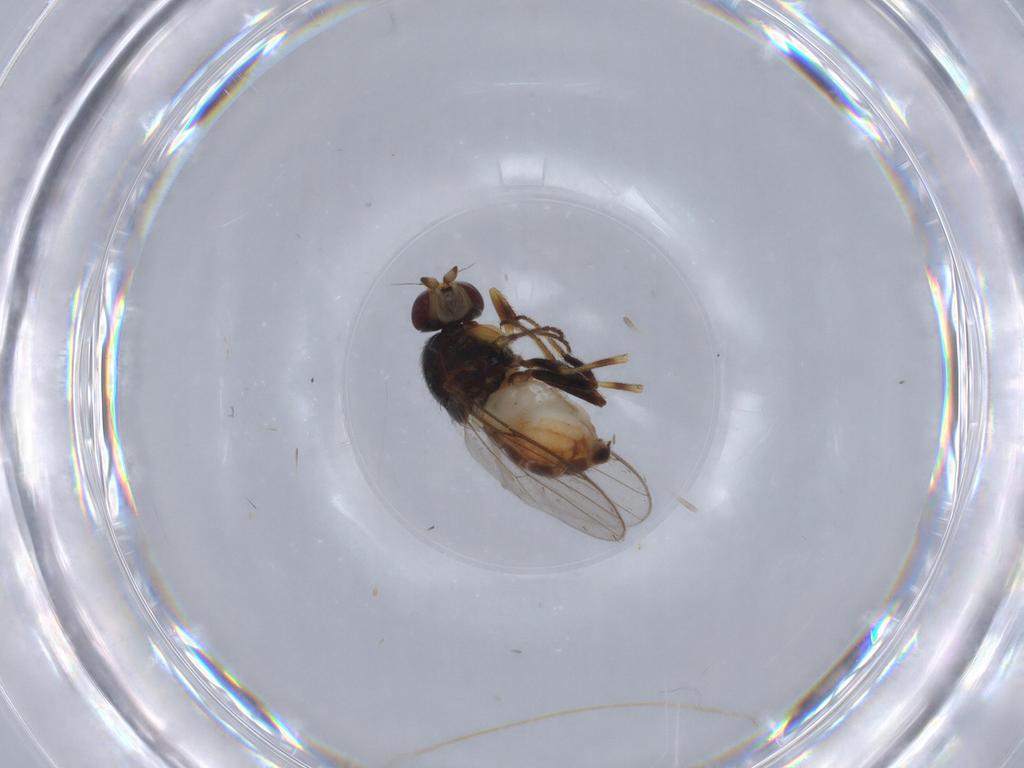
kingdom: Animalia
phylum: Arthropoda
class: Insecta
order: Diptera
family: Chloropidae
